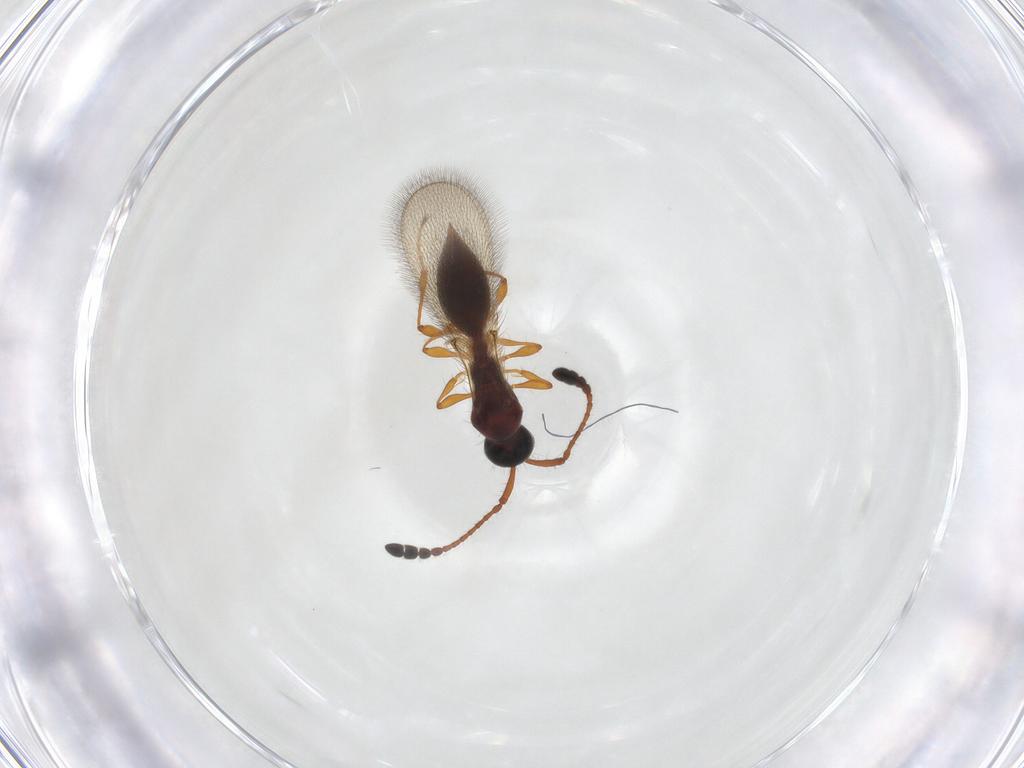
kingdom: Animalia
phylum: Arthropoda
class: Insecta
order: Hymenoptera
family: Diapriidae
